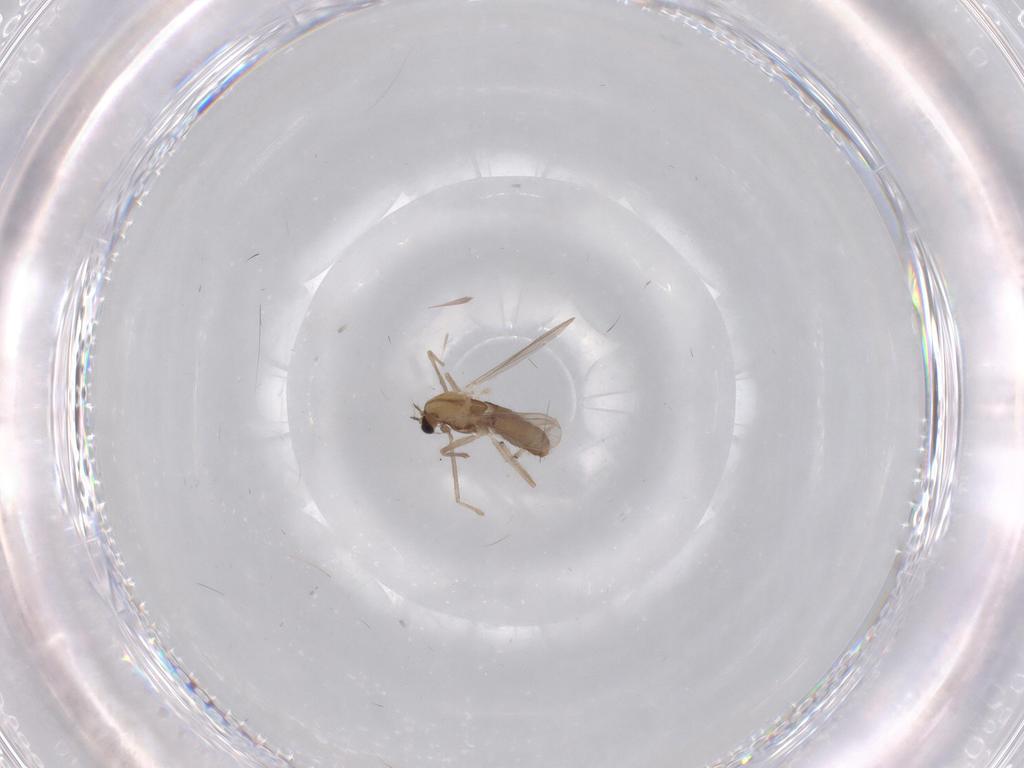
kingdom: Animalia
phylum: Arthropoda
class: Insecta
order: Diptera
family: Chironomidae
